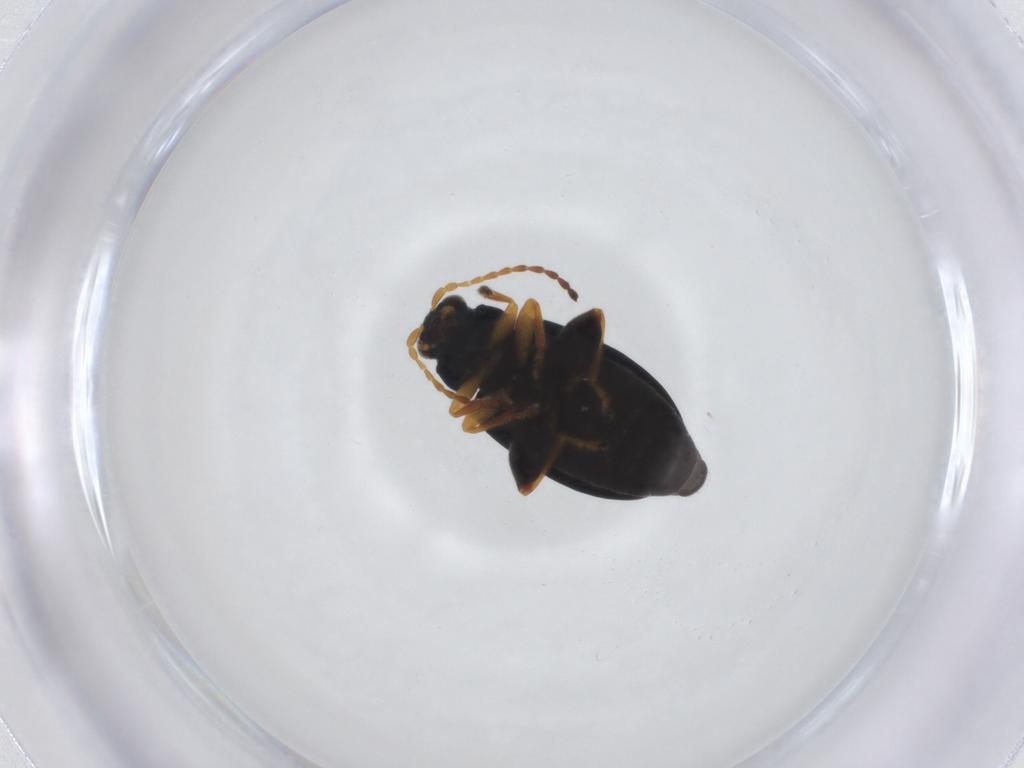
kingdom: Animalia
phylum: Arthropoda
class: Insecta
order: Coleoptera
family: Chrysomelidae
